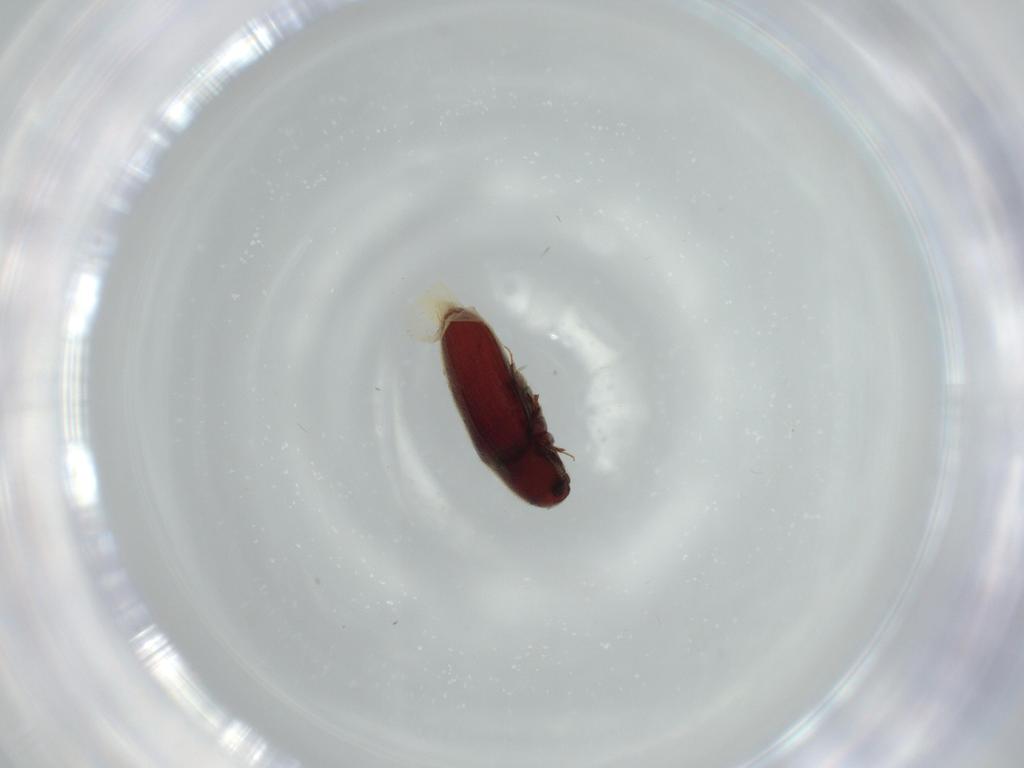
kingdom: Animalia
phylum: Arthropoda
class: Insecta
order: Coleoptera
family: Throscidae
